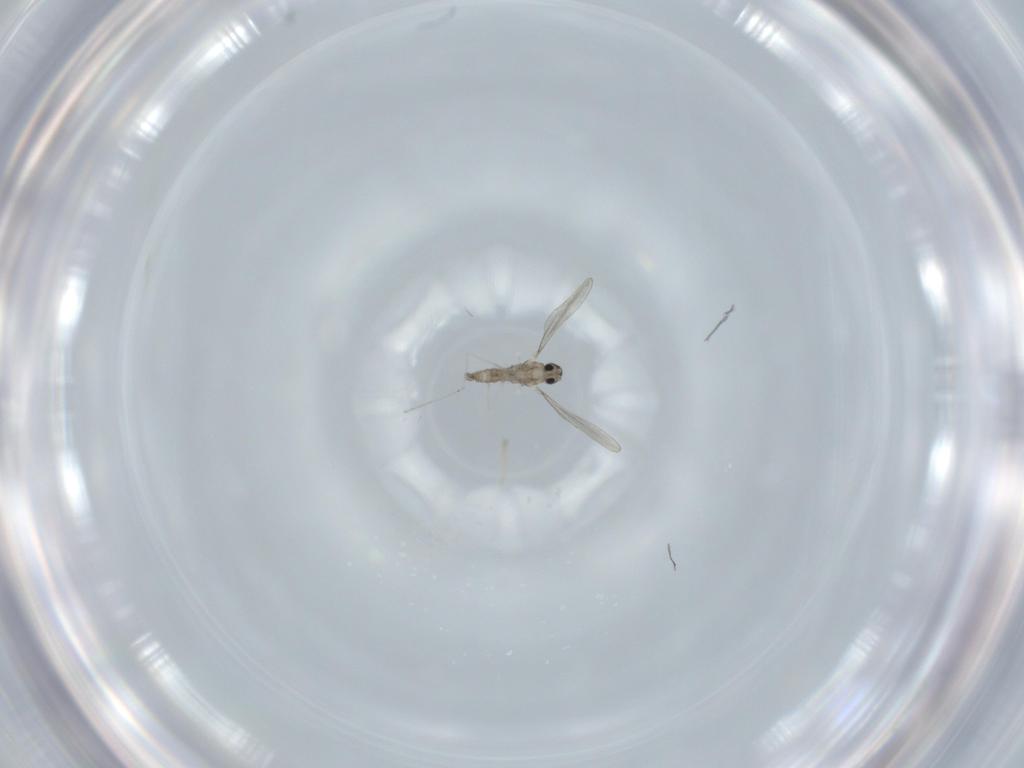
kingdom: Animalia
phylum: Arthropoda
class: Insecta
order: Diptera
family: Cecidomyiidae
